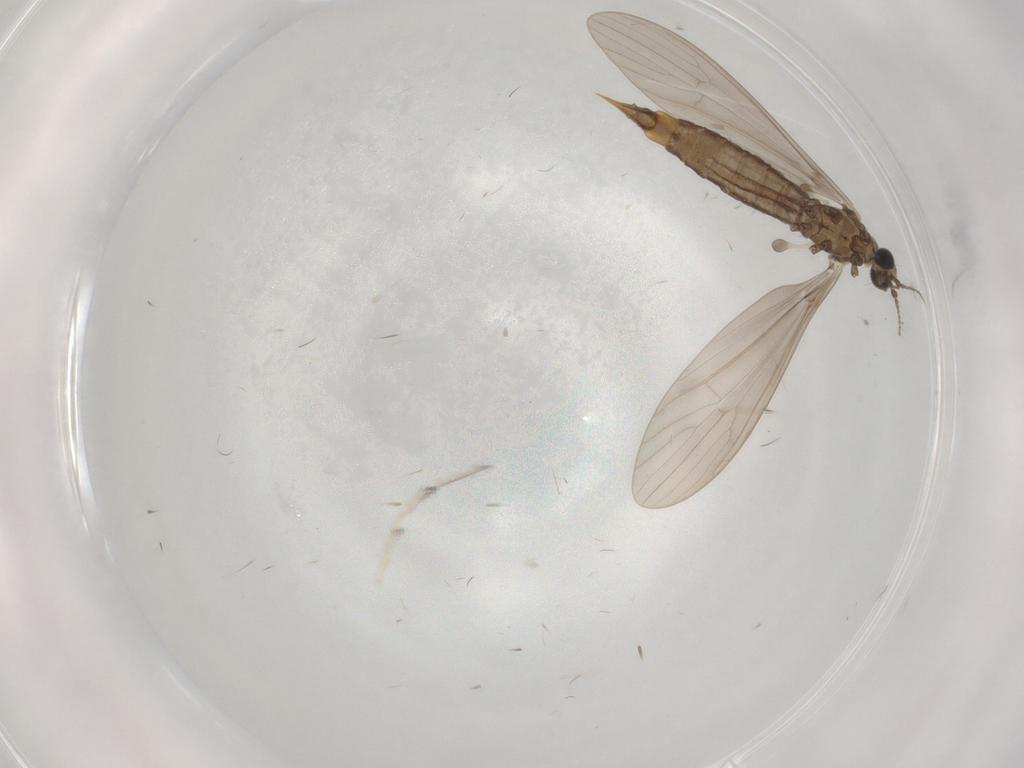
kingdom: Animalia
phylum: Arthropoda
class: Insecta
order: Diptera
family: Limoniidae
